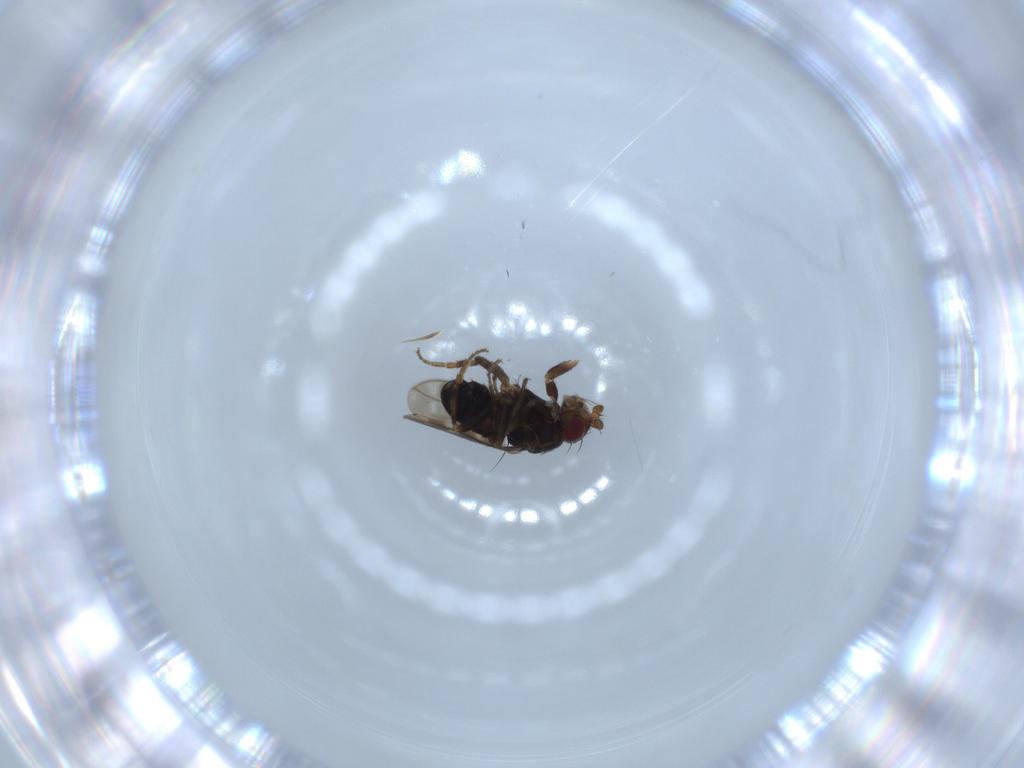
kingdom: Animalia
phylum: Arthropoda
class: Insecta
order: Diptera
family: Sphaeroceridae
